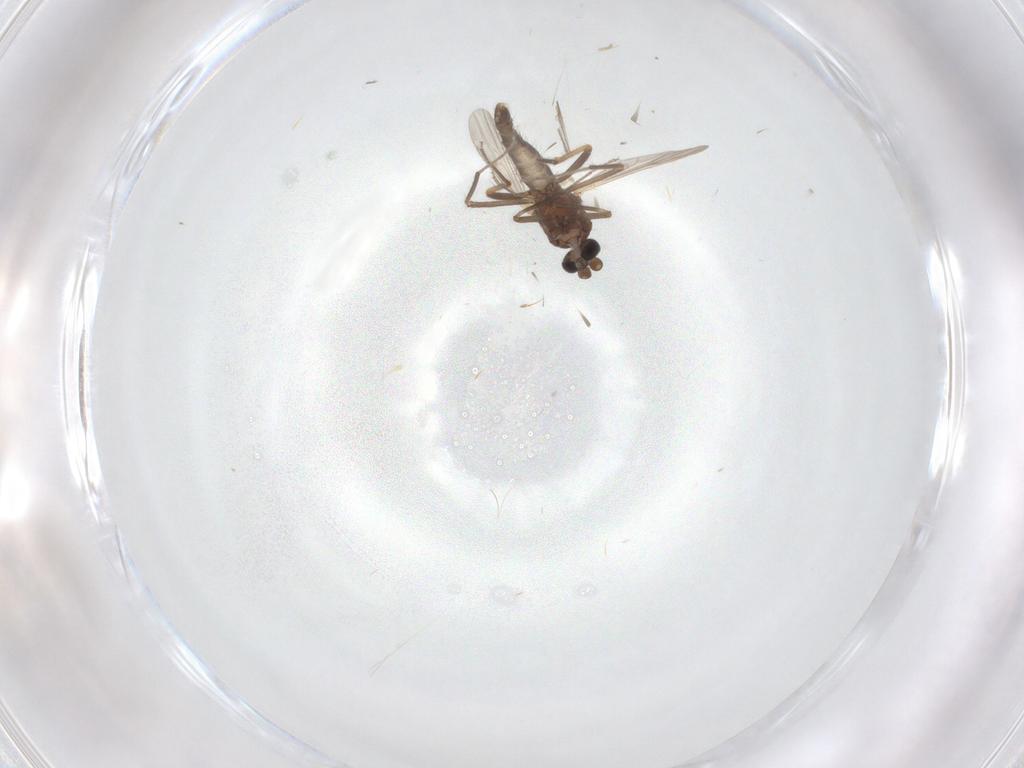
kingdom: Animalia
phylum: Arthropoda
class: Insecta
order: Diptera
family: Ceratopogonidae
